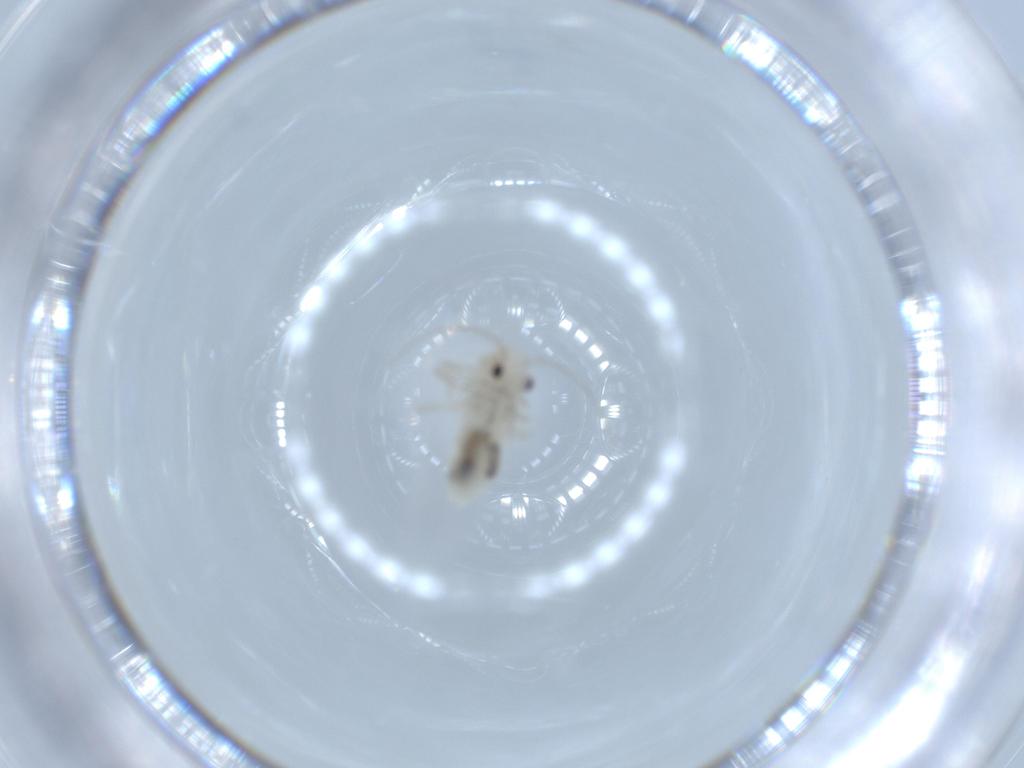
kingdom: Animalia
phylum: Arthropoda
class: Insecta
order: Psocodea
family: Caeciliusidae
